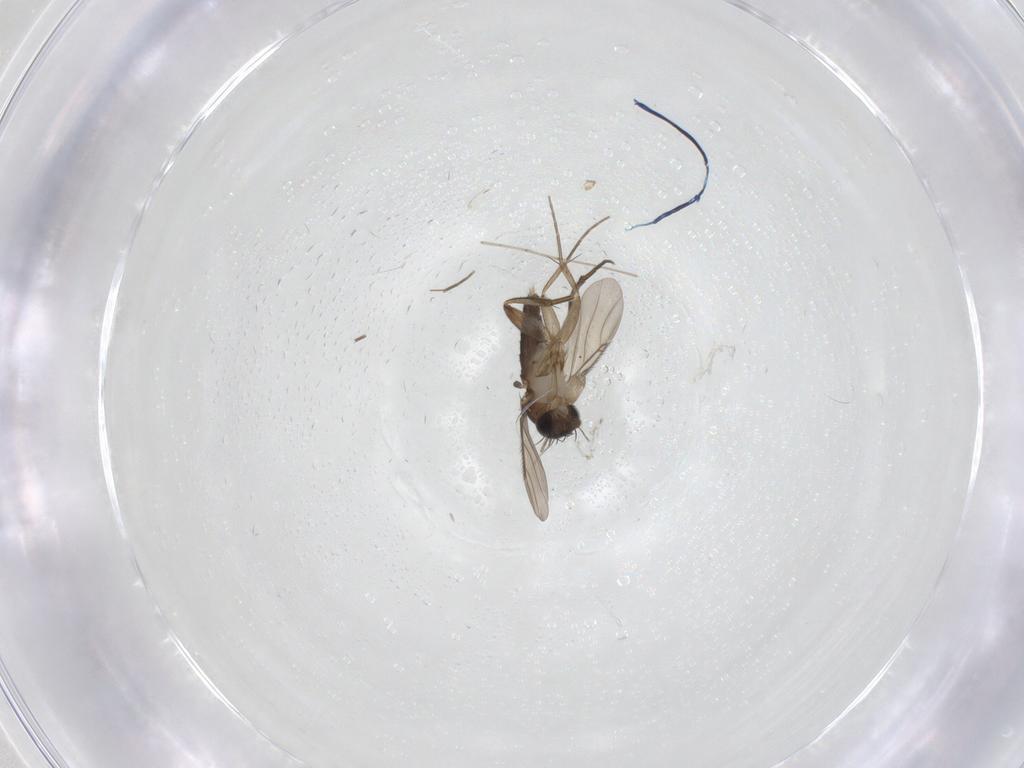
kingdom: Animalia
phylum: Arthropoda
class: Insecta
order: Diptera
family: Phoridae
